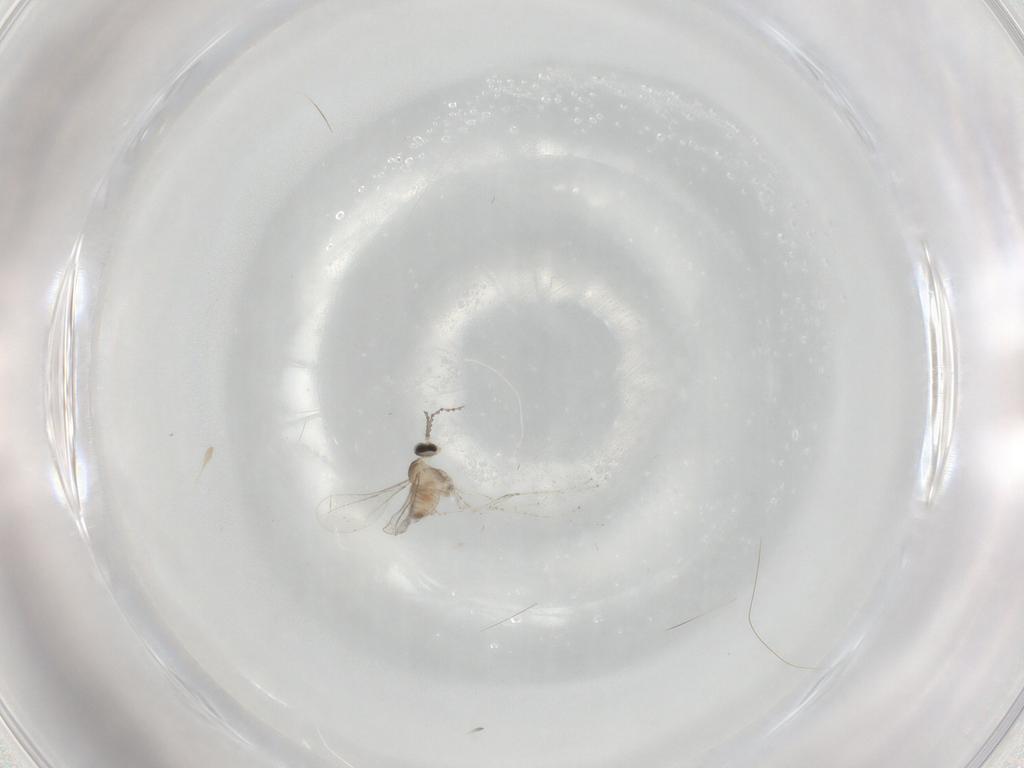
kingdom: Animalia
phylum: Arthropoda
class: Insecta
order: Diptera
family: Cecidomyiidae
